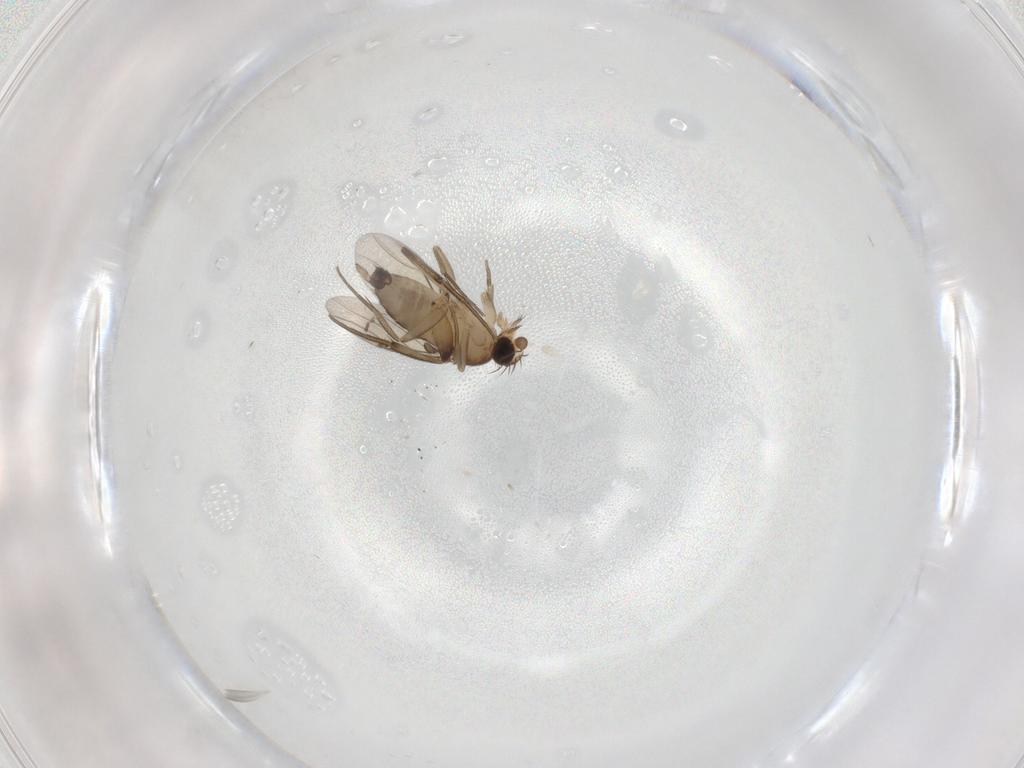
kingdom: Animalia
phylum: Arthropoda
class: Insecta
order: Diptera
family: Phoridae
